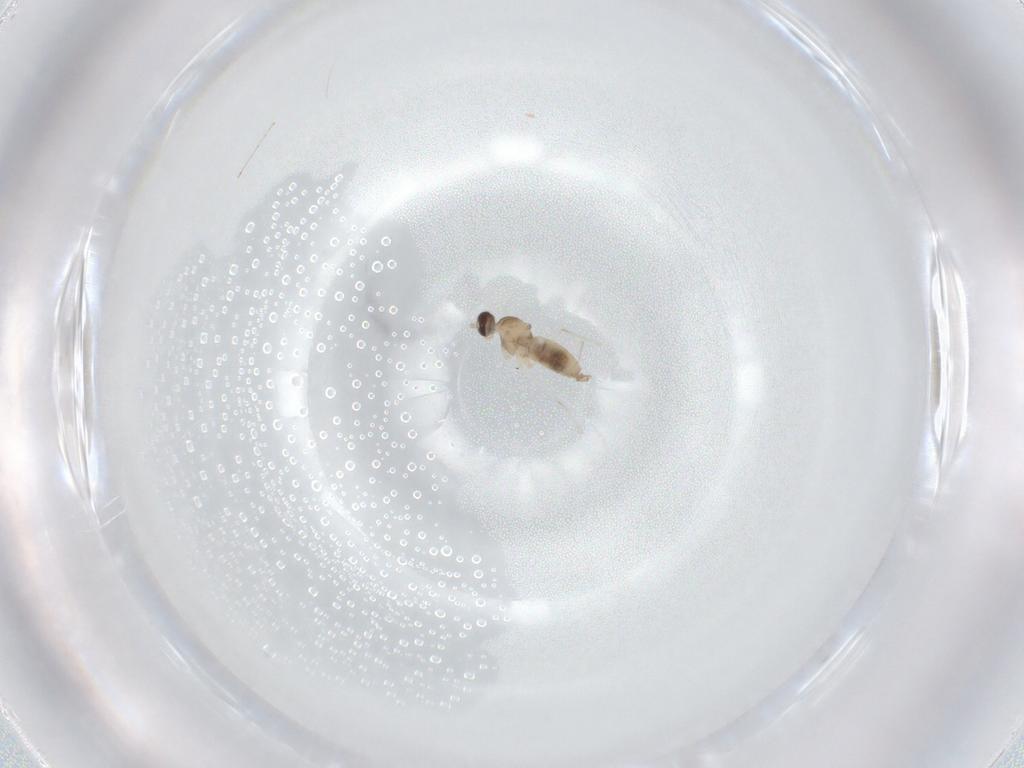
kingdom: Animalia
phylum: Arthropoda
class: Insecta
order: Diptera
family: Cecidomyiidae
